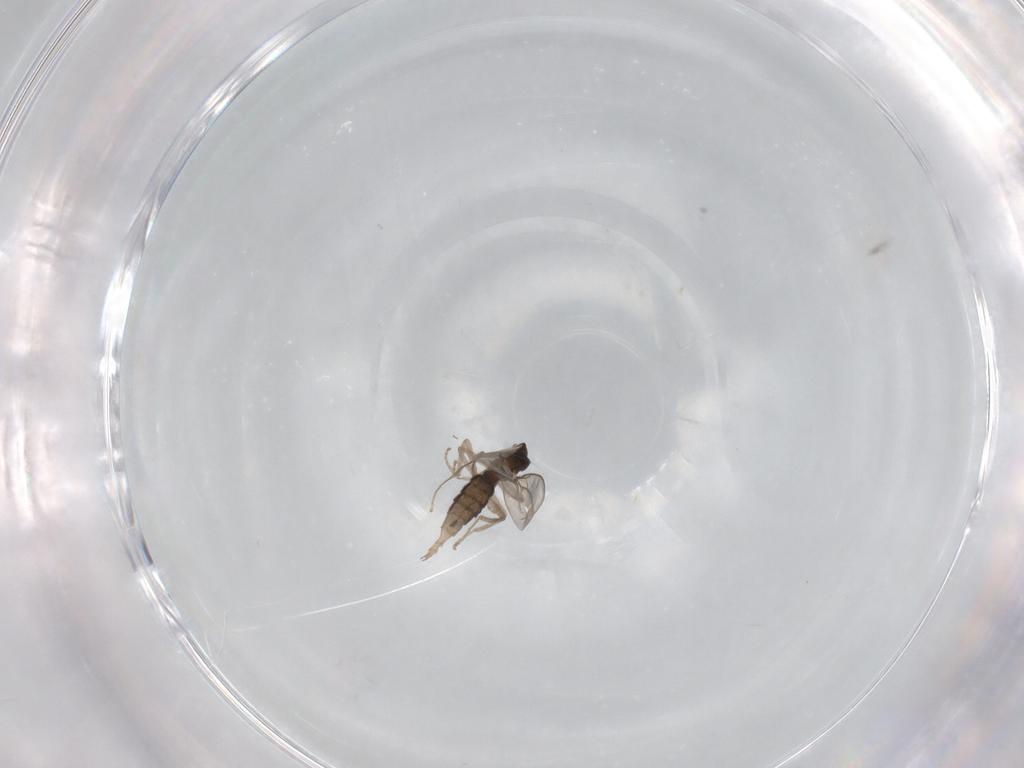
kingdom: Animalia
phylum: Arthropoda
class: Insecta
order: Diptera
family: Cecidomyiidae
